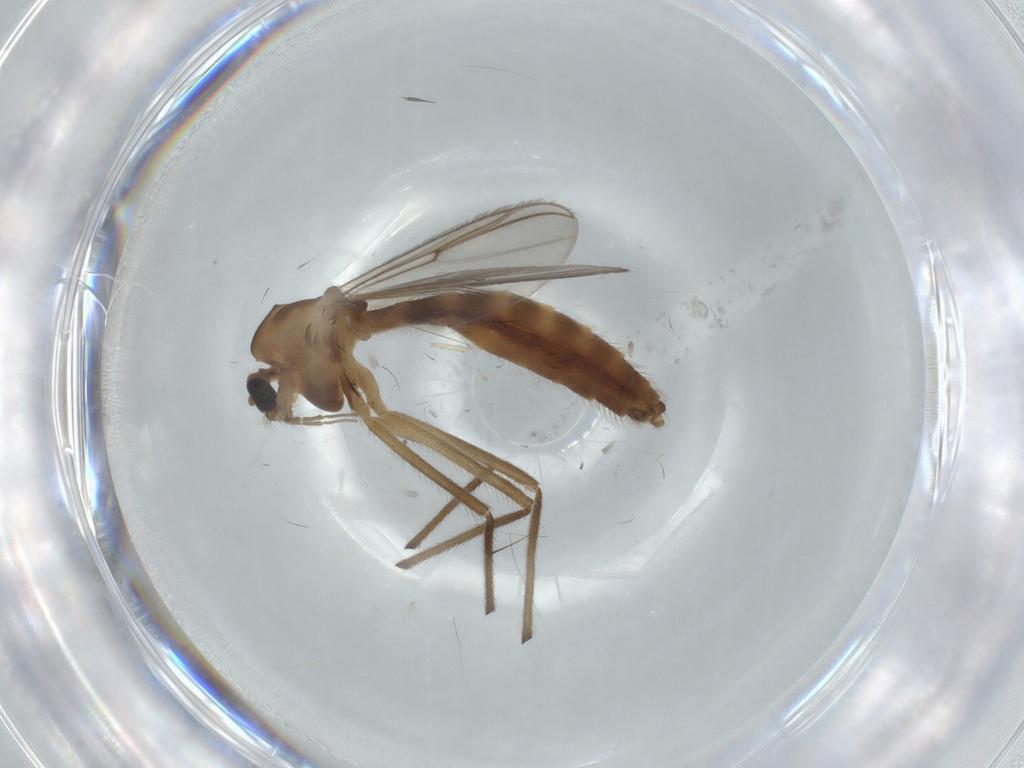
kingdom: Animalia
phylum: Arthropoda
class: Insecta
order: Diptera
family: Chironomidae
